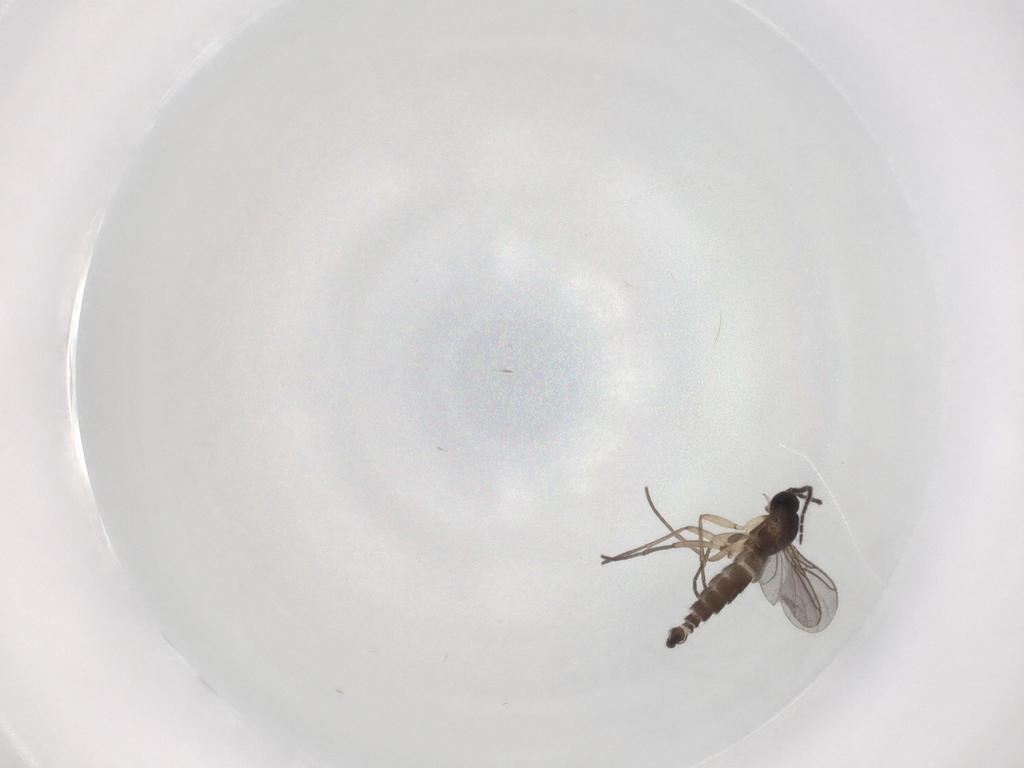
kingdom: Animalia
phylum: Arthropoda
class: Insecta
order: Diptera
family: Sciaridae
